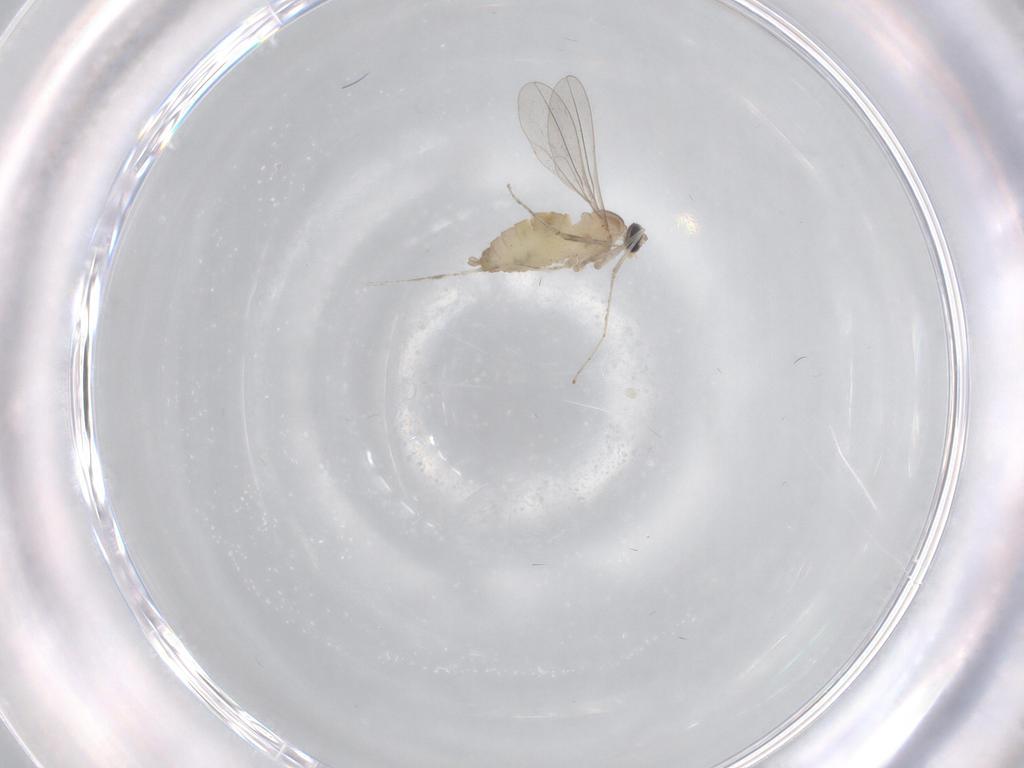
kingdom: Animalia
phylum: Arthropoda
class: Insecta
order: Diptera
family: Cecidomyiidae
